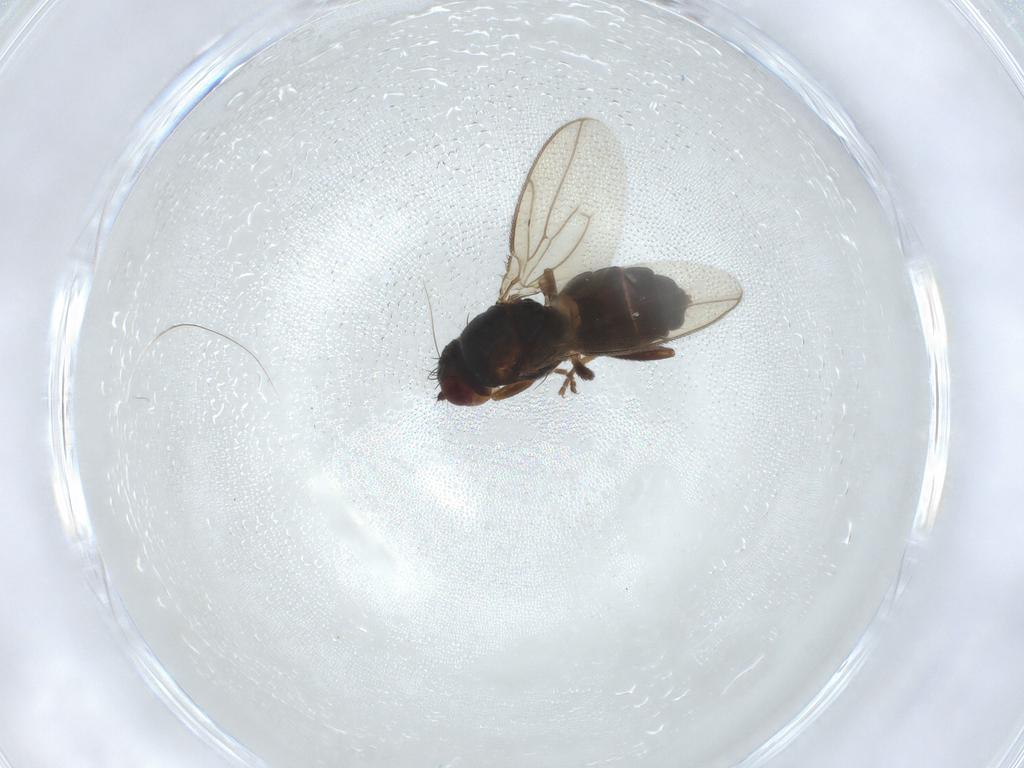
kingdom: Animalia
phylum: Arthropoda
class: Insecta
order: Diptera
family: Sphaeroceridae
